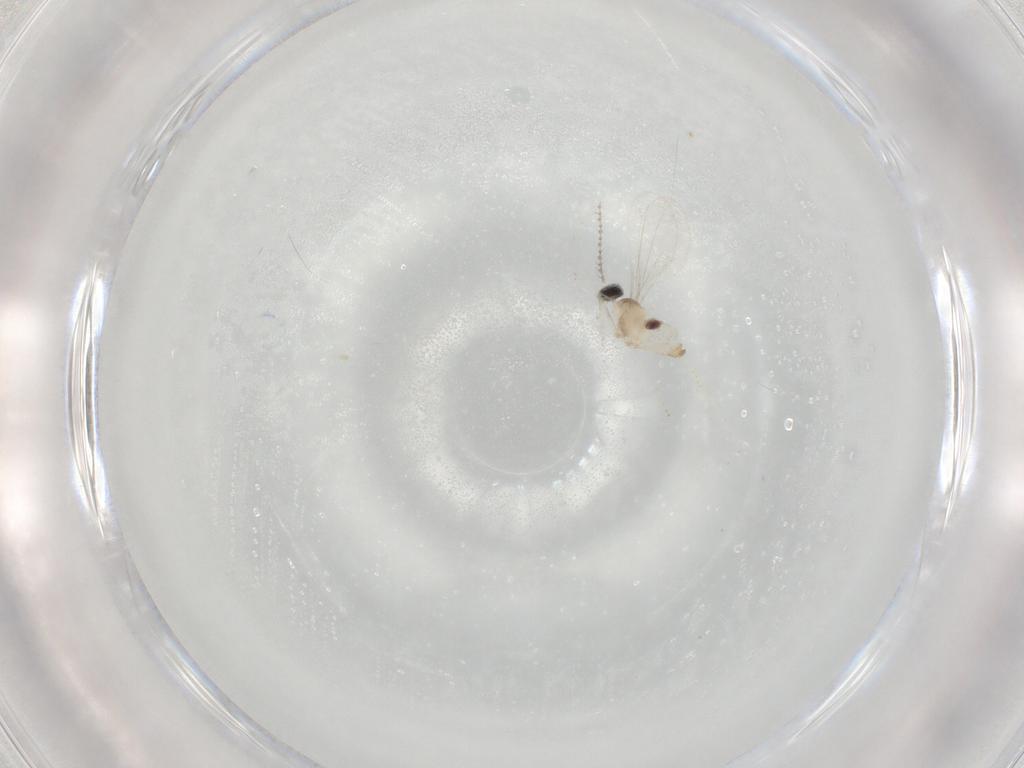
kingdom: Animalia
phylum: Arthropoda
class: Insecta
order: Diptera
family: Cecidomyiidae
